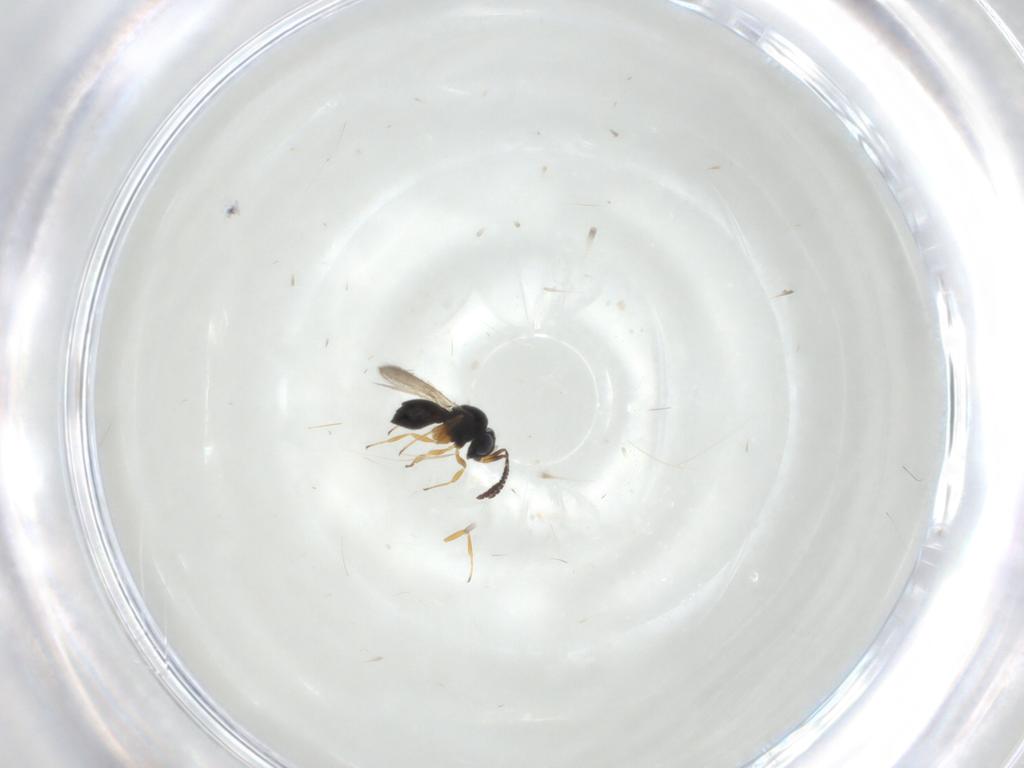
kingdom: Animalia
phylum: Arthropoda
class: Insecta
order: Hymenoptera
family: Scelionidae
